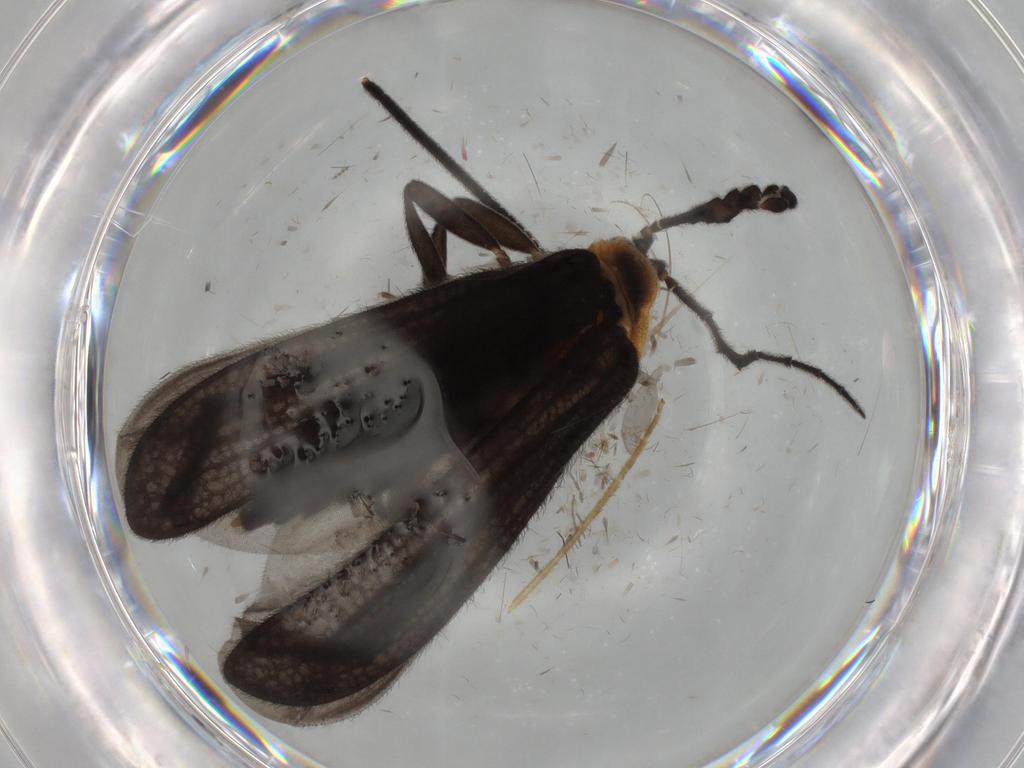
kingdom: Animalia
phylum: Arthropoda
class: Insecta
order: Coleoptera
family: Lycidae
